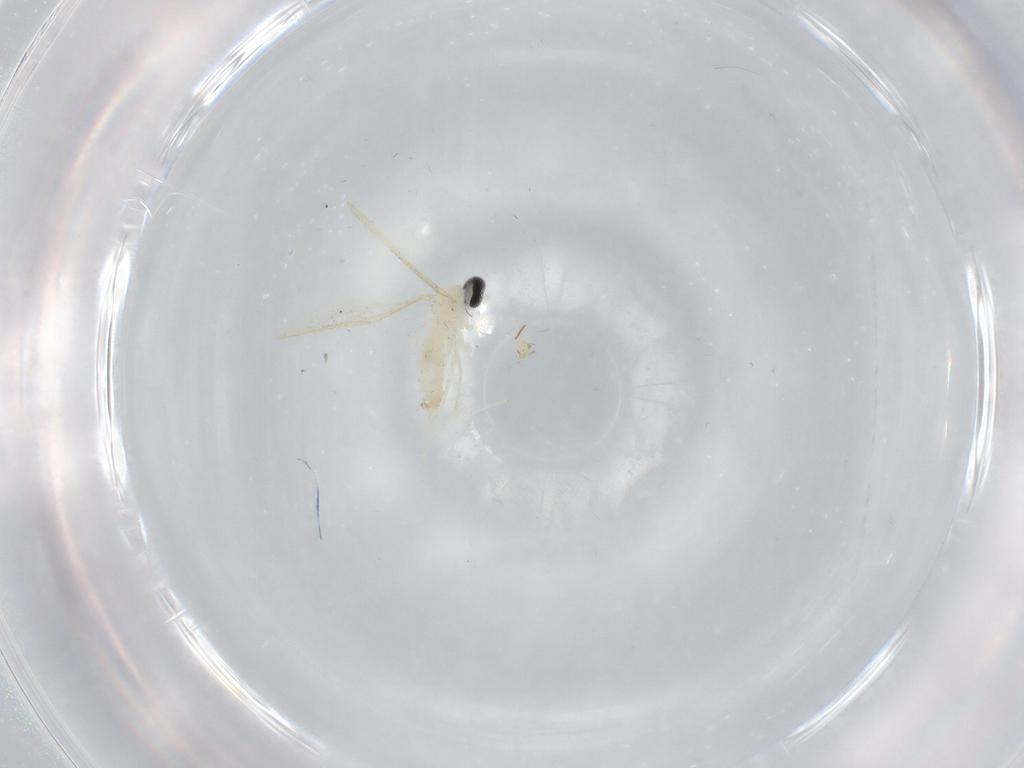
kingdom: Animalia
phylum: Arthropoda
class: Insecta
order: Diptera
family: Cecidomyiidae
